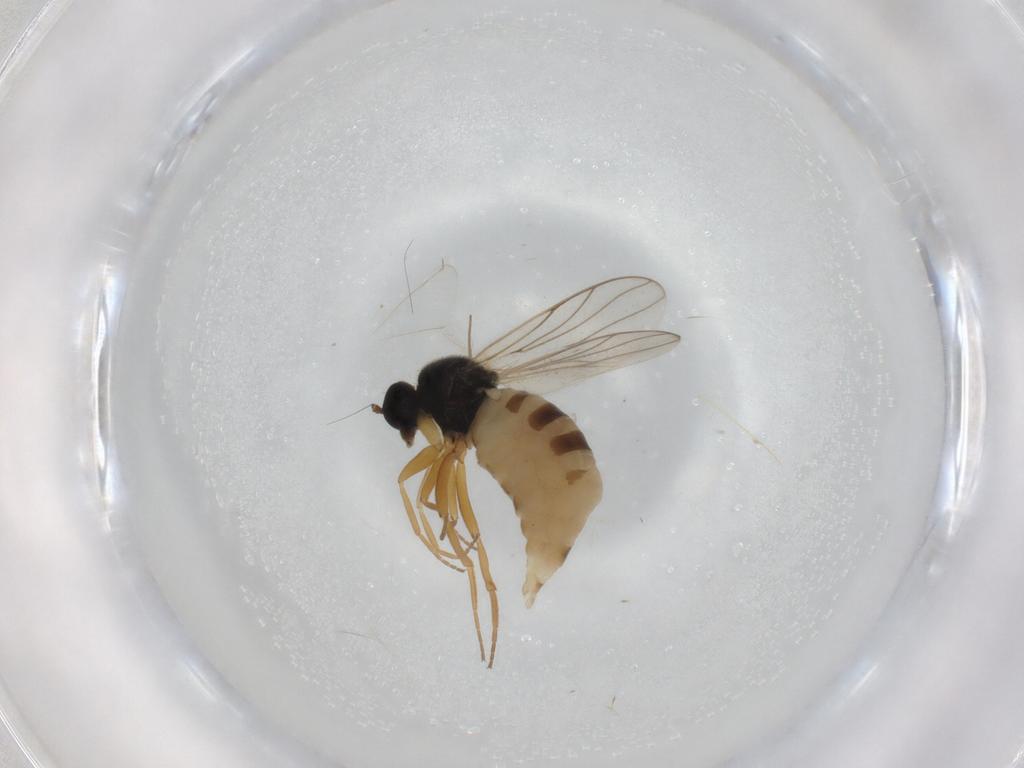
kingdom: Animalia
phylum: Arthropoda
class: Insecta
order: Diptera
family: Ceratopogonidae
